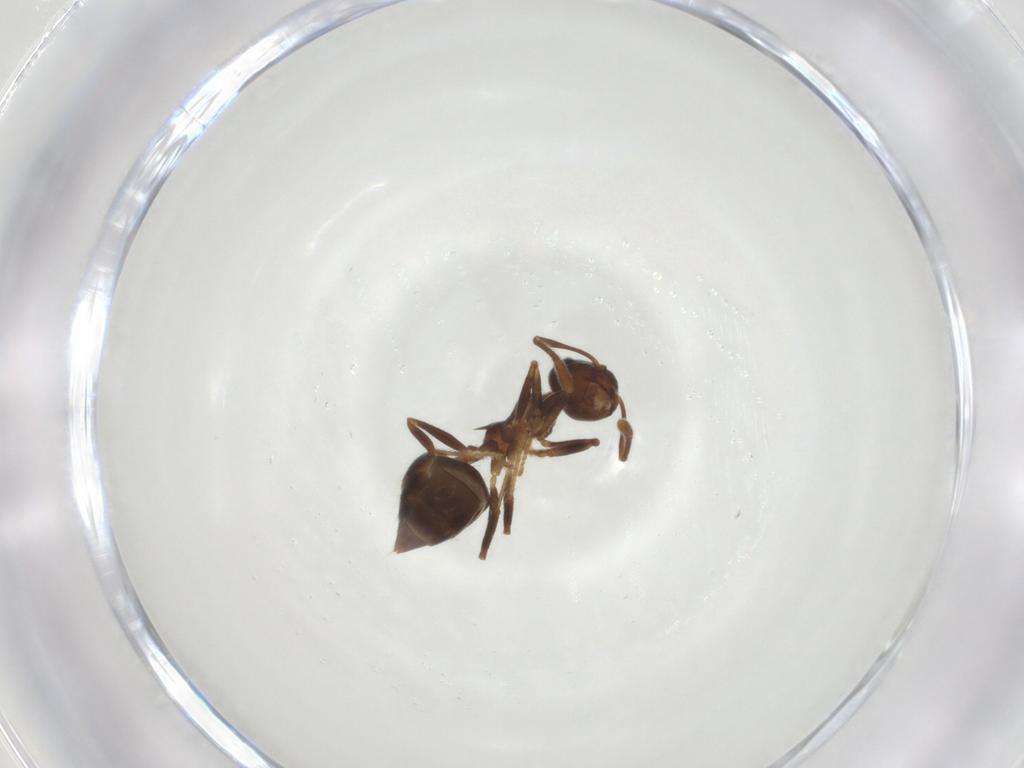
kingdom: Animalia
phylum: Arthropoda
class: Insecta
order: Hymenoptera
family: Formicidae
